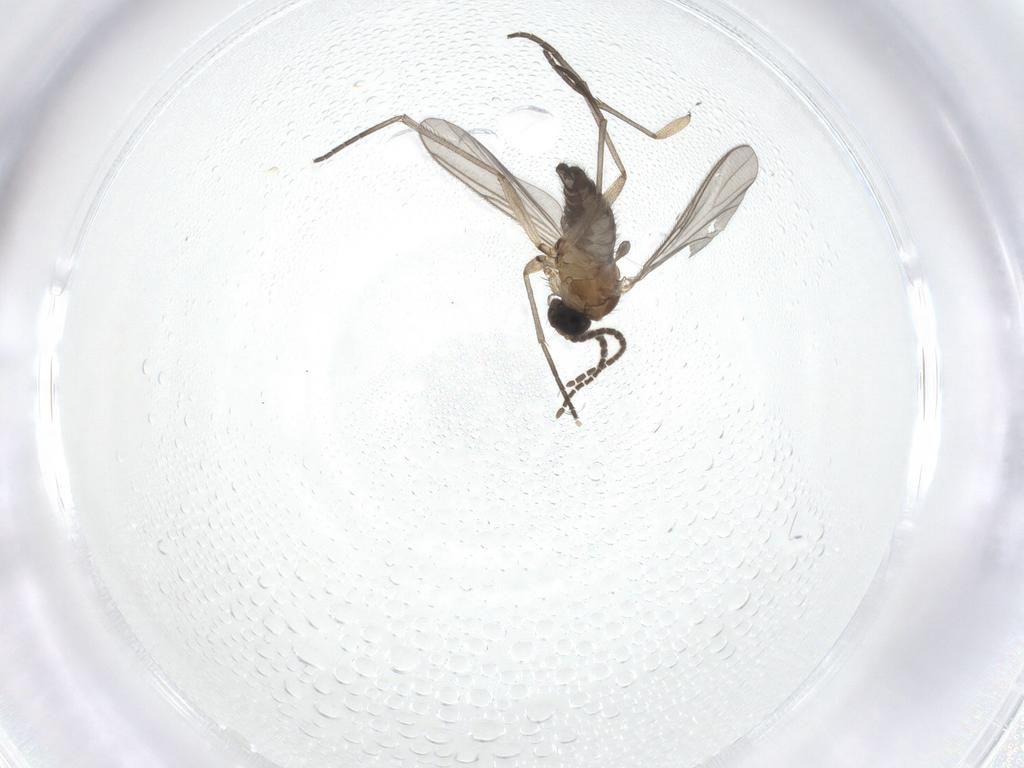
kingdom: Animalia
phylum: Arthropoda
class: Insecta
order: Diptera
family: Sciaridae
